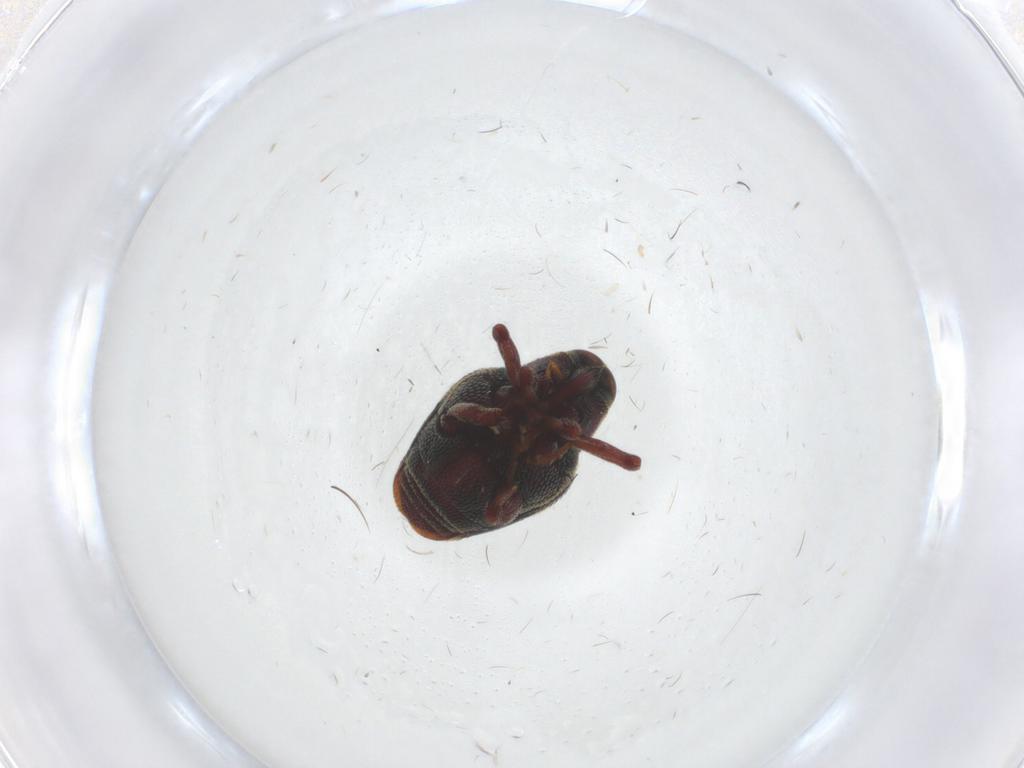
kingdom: Animalia
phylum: Arthropoda
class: Insecta
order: Coleoptera
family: Curculionidae
